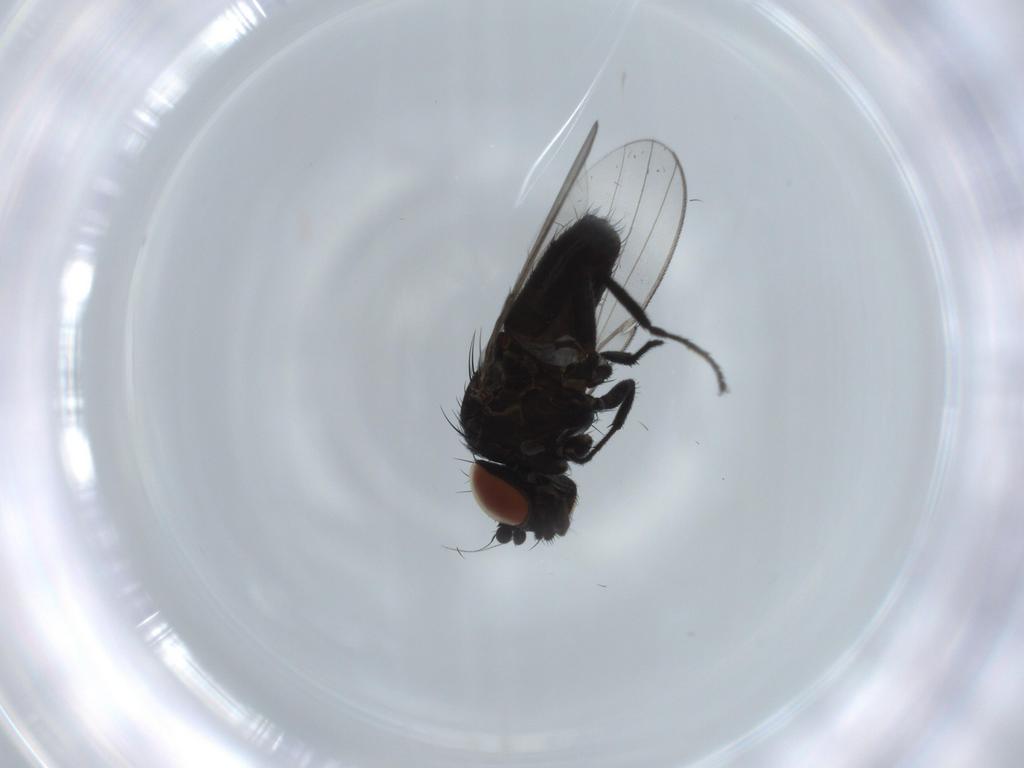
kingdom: Animalia
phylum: Arthropoda
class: Insecta
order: Diptera
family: Milichiidae
